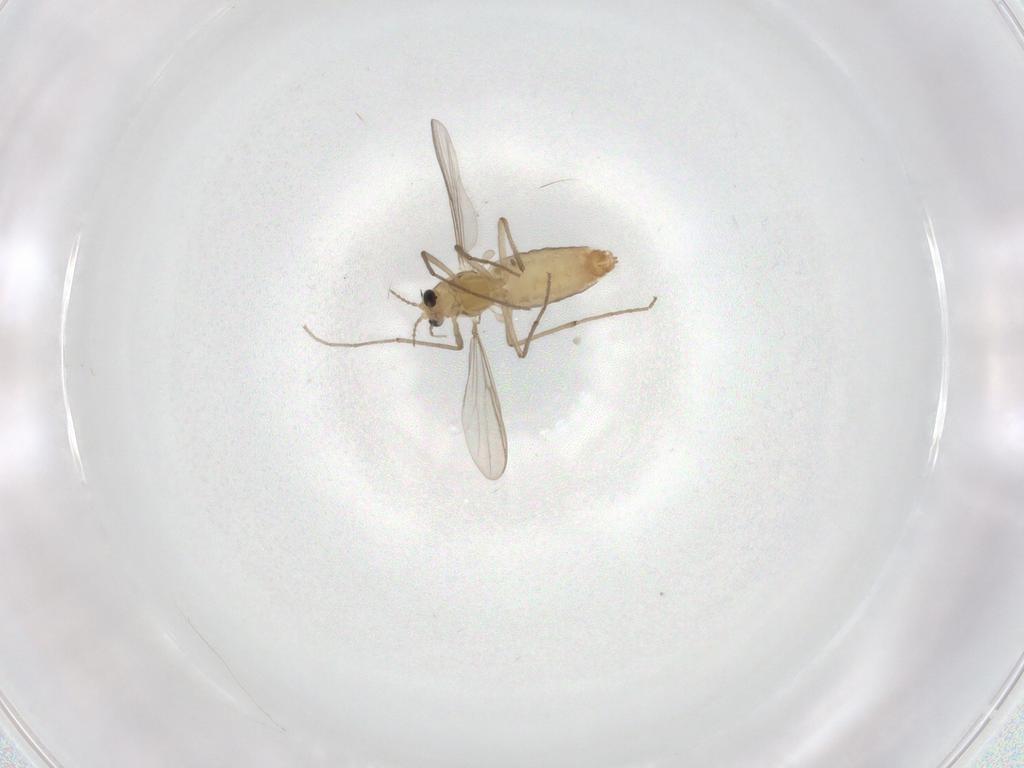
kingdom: Animalia
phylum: Arthropoda
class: Insecta
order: Diptera
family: Chironomidae
